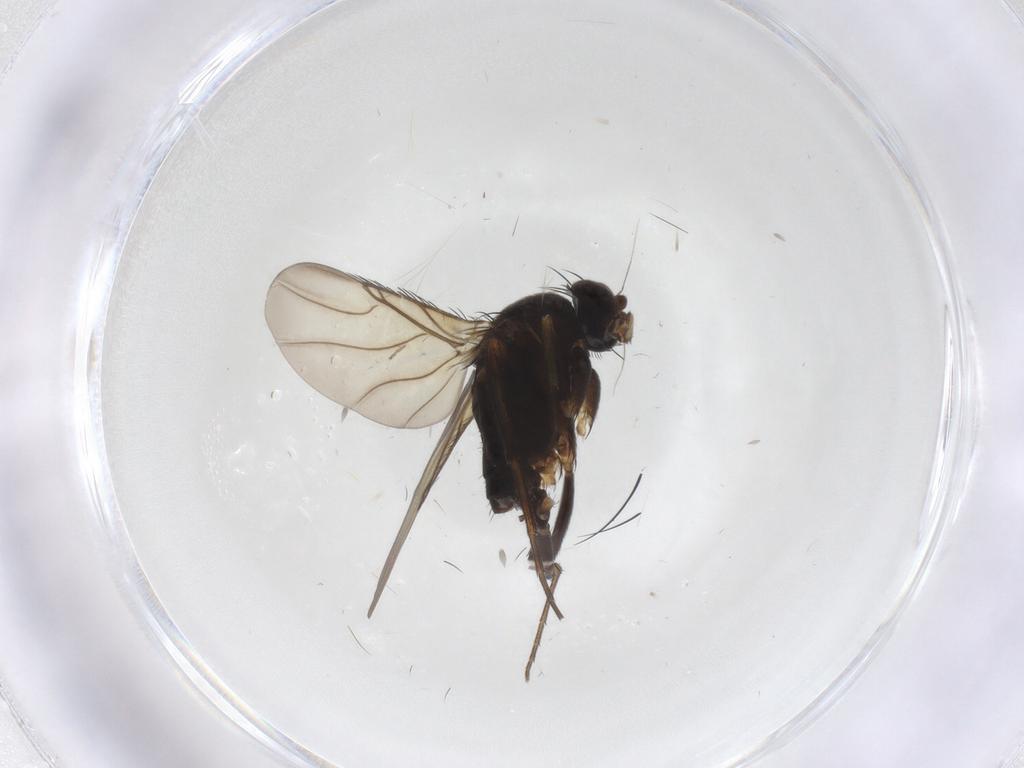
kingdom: Animalia
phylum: Arthropoda
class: Insecta
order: Diptera
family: Phoridae
